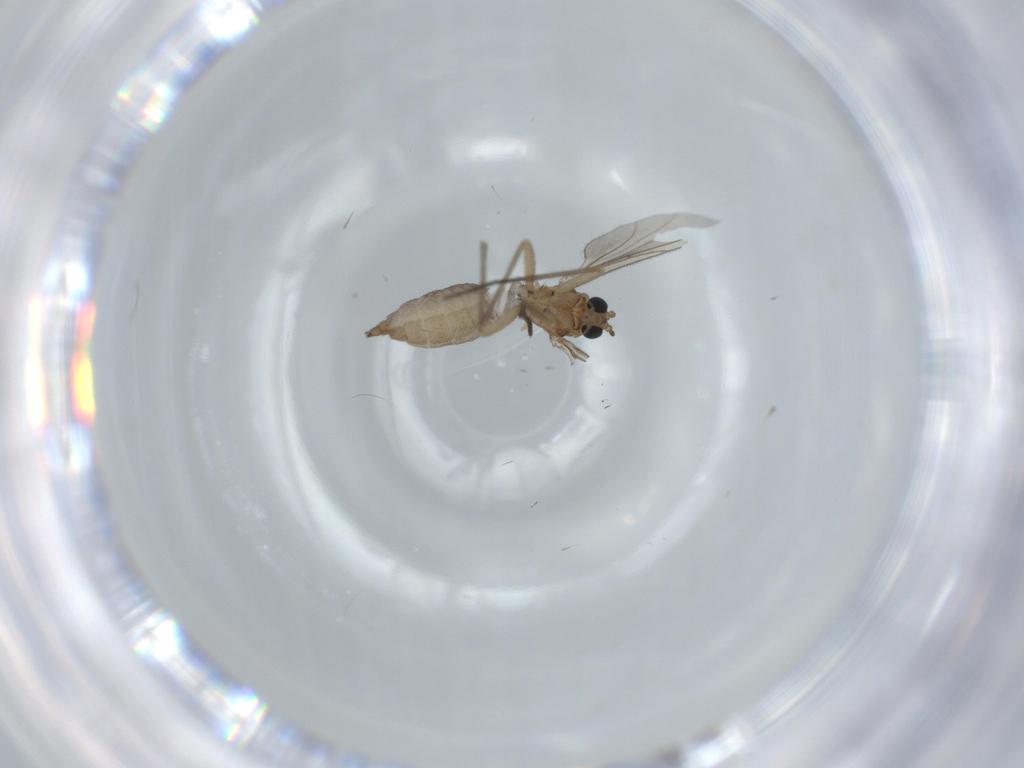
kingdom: Animalia
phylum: Arthropoda
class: Insecta
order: Diptera
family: Sciaridae
